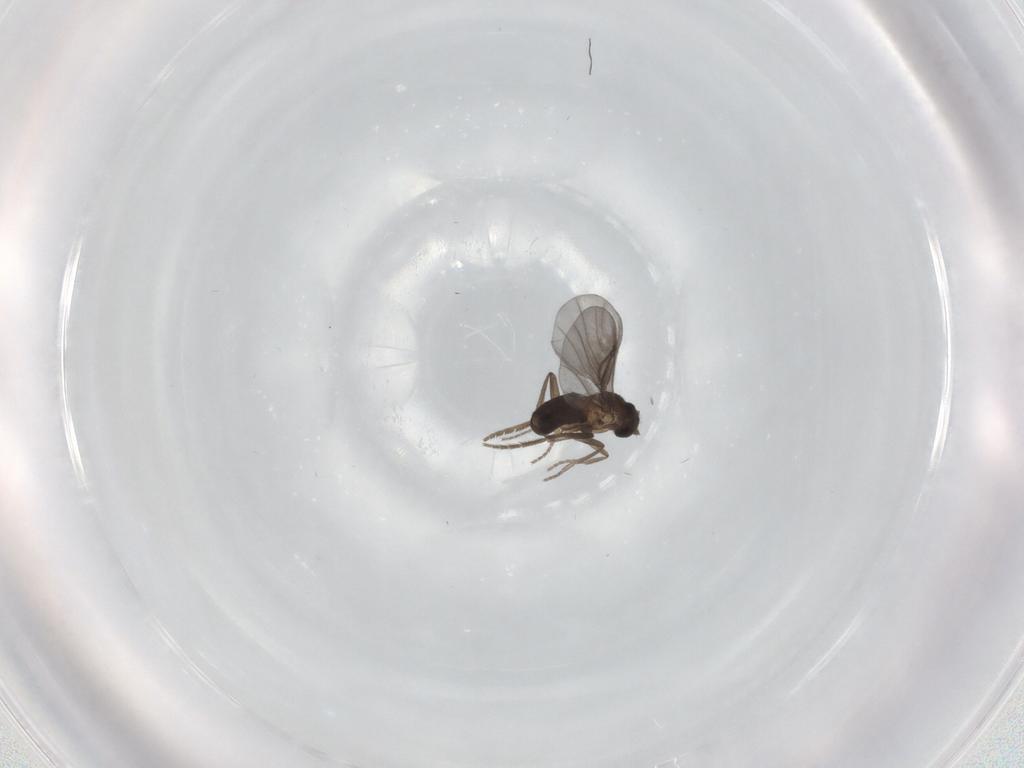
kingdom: Animalia
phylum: Arthropoda
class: Insecta
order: Diptera
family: Phoridae
